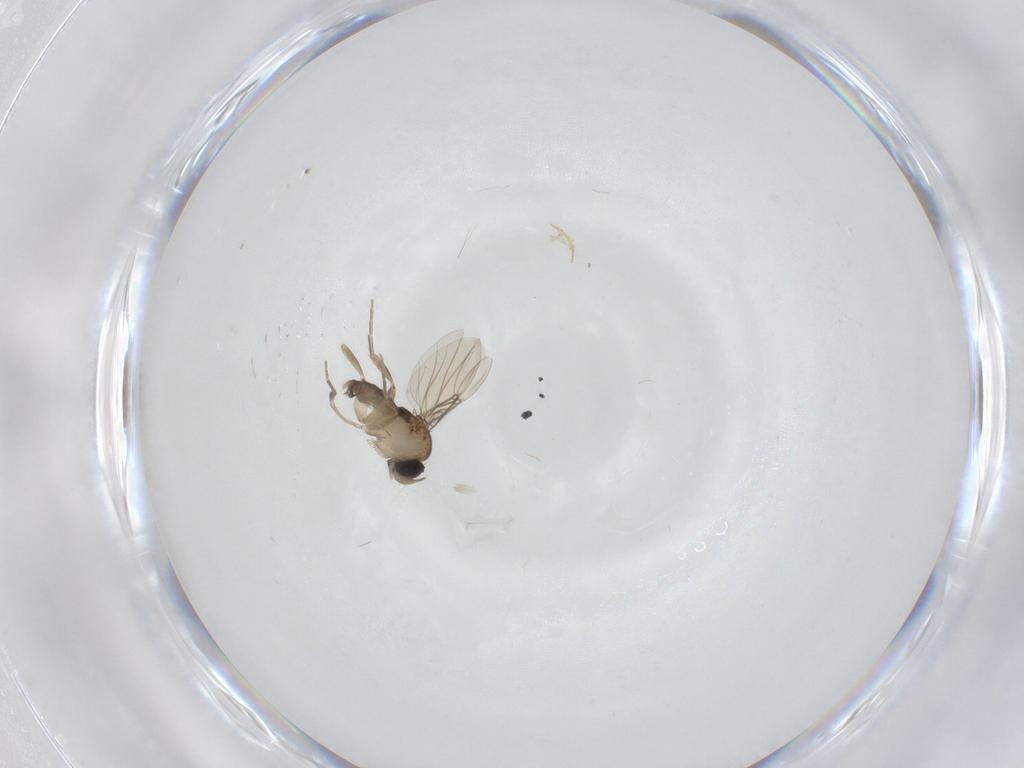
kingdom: Animalia
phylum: Arthropoda
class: Insecta
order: Diptera
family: Phoridae
